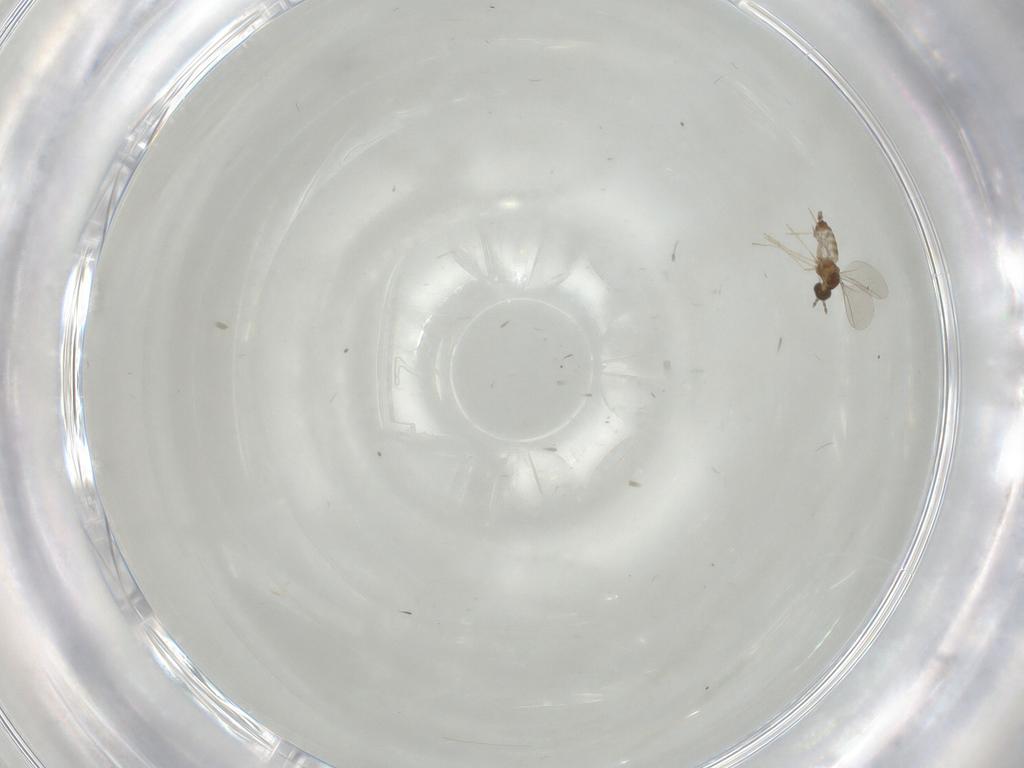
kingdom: Animalia
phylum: Arthropoda
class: Insecta
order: Diptera
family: Cecidomyiidae
